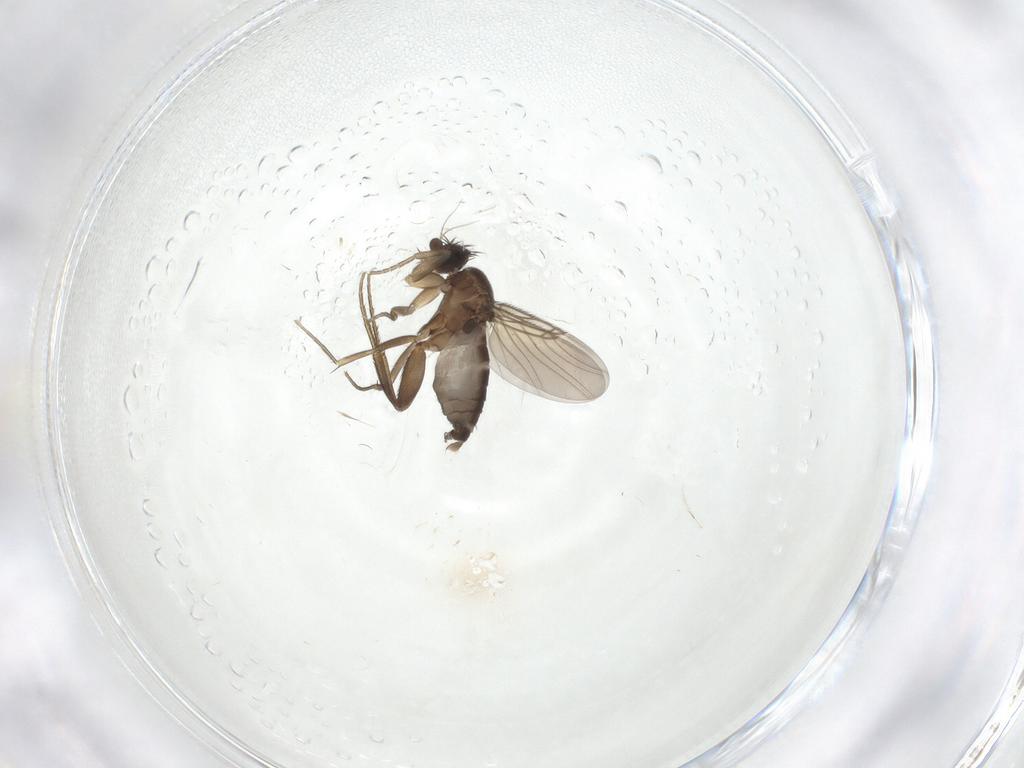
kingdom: Animalia
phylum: Arthropoda
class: Insecta
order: Diptera
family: Phoridae
